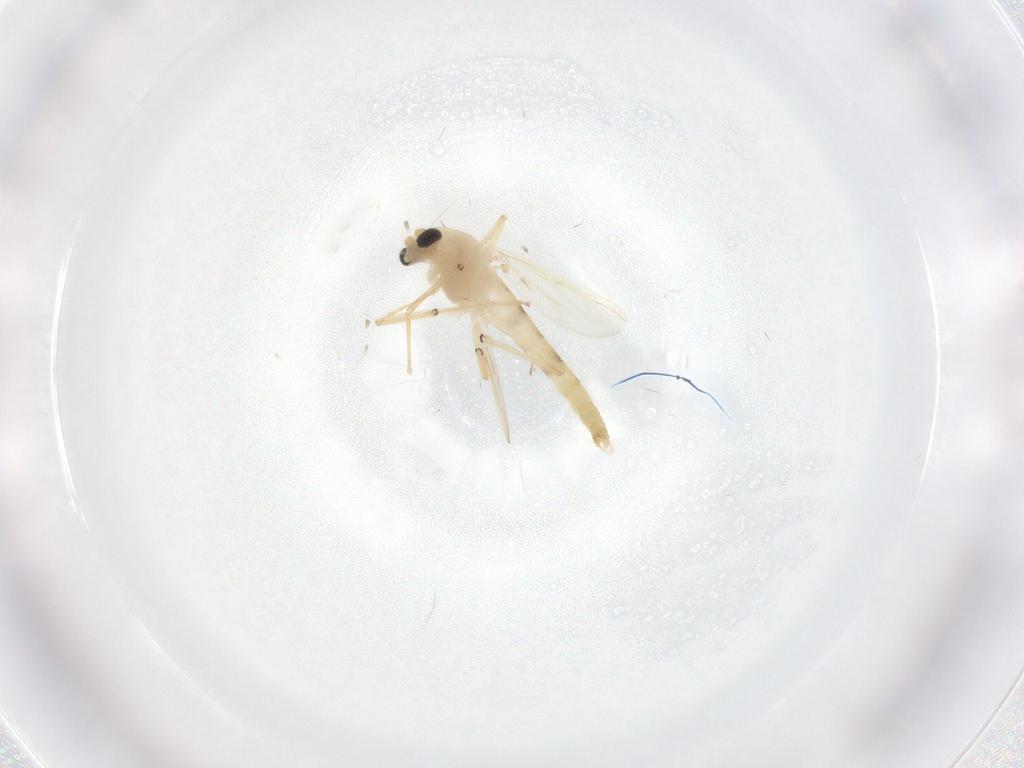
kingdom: Animalia
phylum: Arthropoda
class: Insecta
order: Diptera
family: Chironomidae
